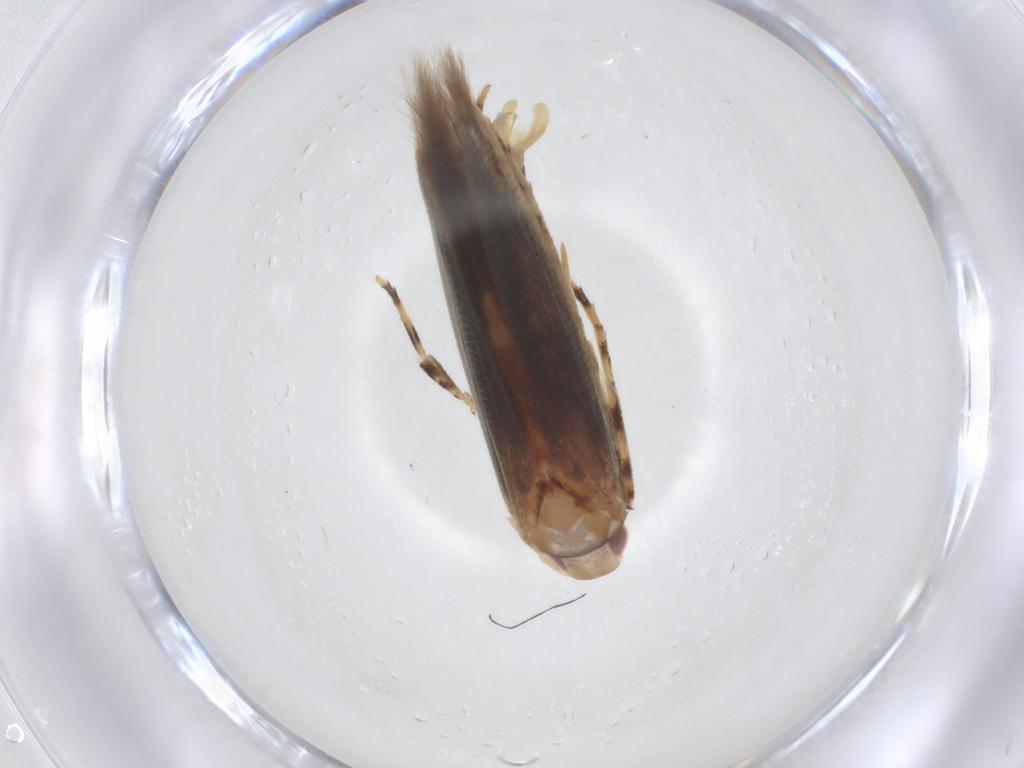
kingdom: Animalia
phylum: Arthropoda
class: Insecta
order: Lepidoptera
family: Cosmopterigidae
